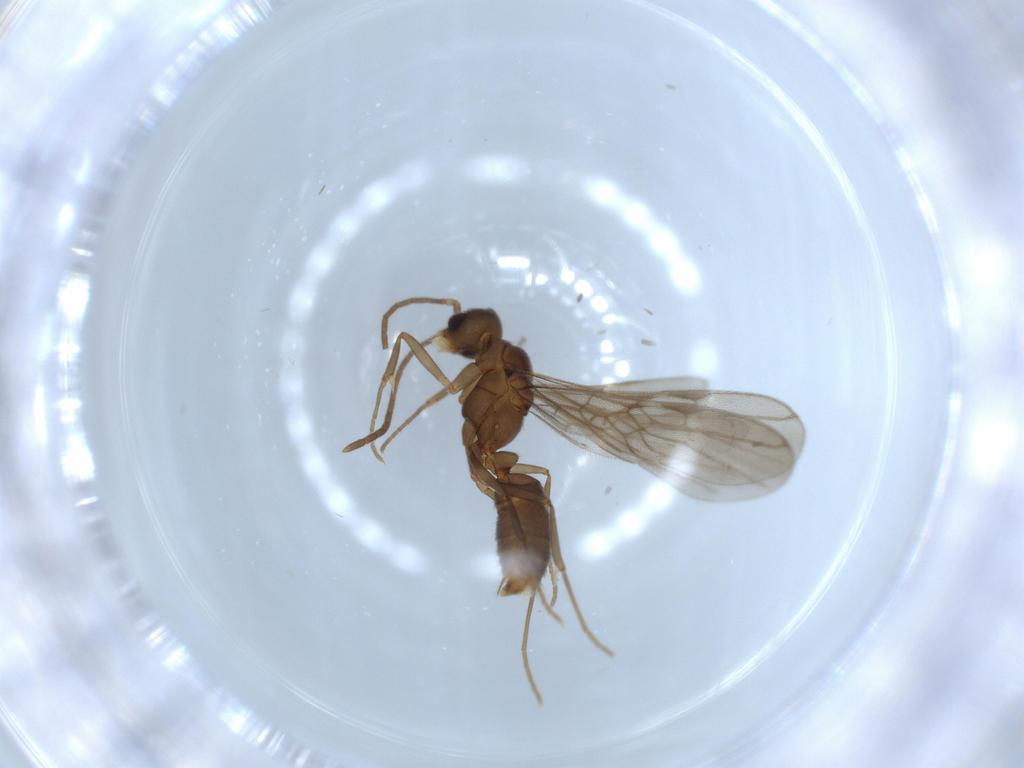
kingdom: Animalia
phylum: Arthropoda
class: Insecta
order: Hymenoptera
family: Formicidae
